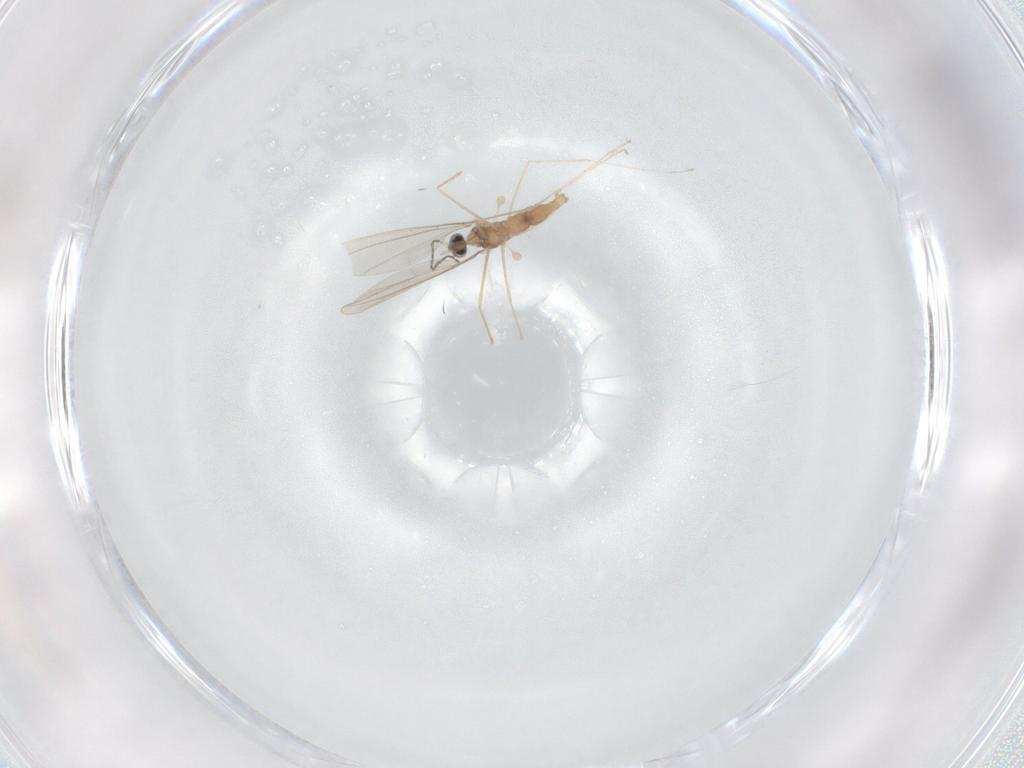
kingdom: Animalia
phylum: Arthropoda
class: Insecta
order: Diptera
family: Cecidomyiidae
